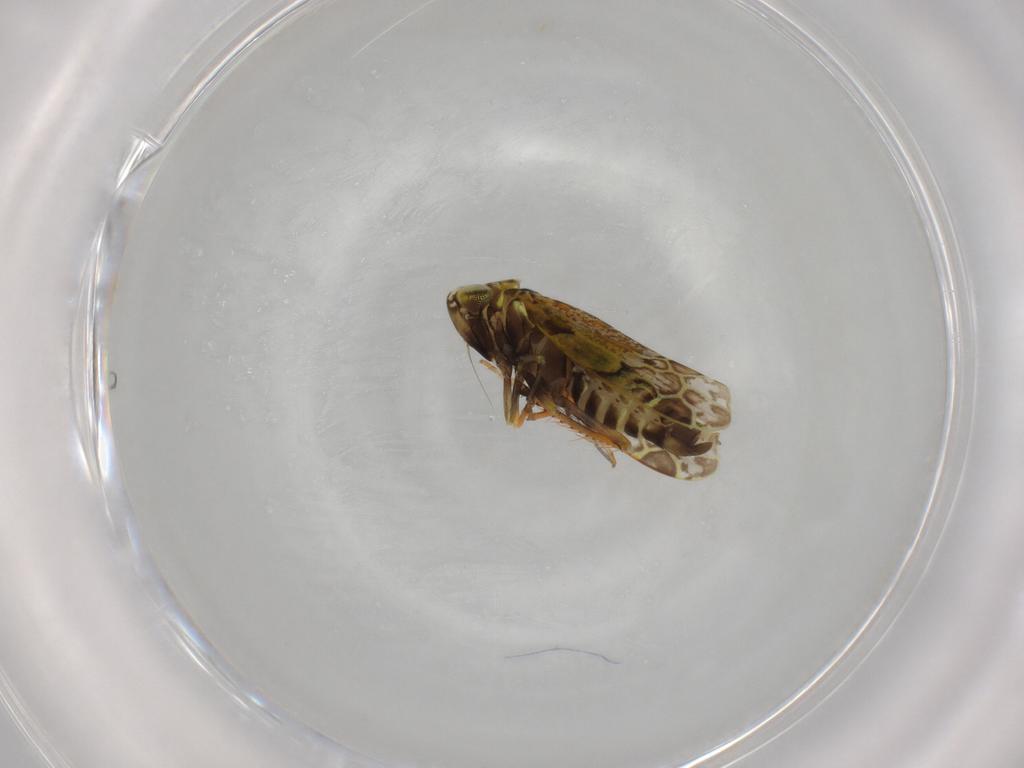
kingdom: Animalia
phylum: Arthropoda
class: Insecta
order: Hemiptera
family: Cicadellidae
